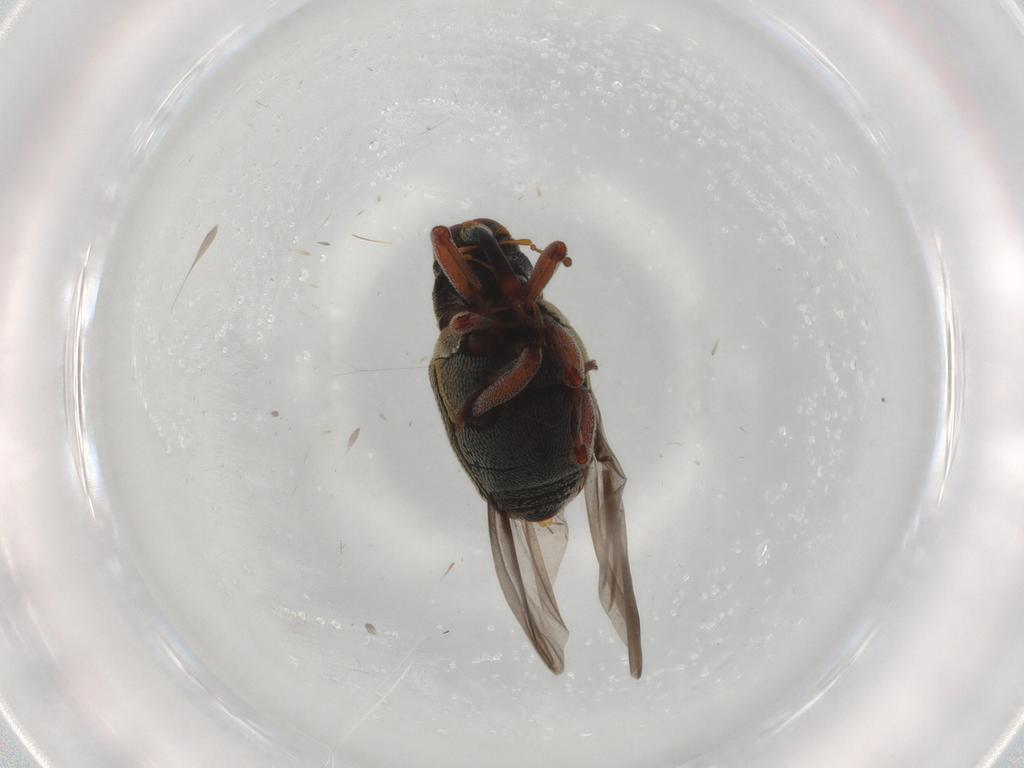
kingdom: Animalia
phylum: Arthropoda
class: Insecta
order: Coleoptera
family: Curculionidae
